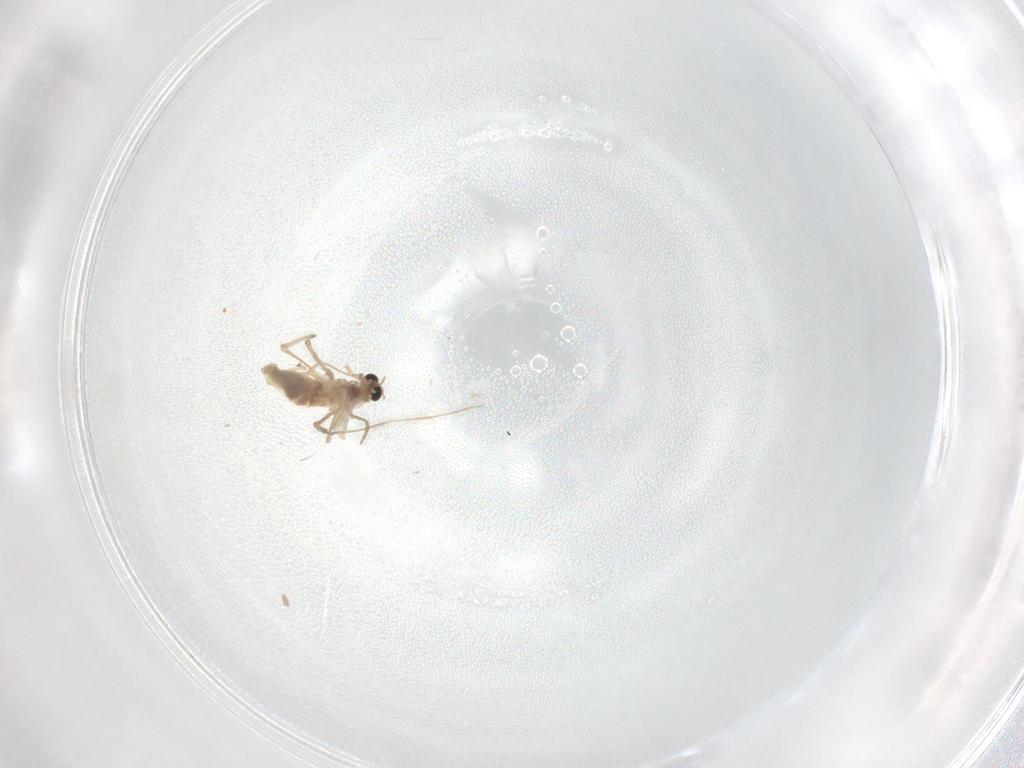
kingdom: Animalia
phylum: Arthropoda
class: Insecta
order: Diptera
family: Chironomidae
